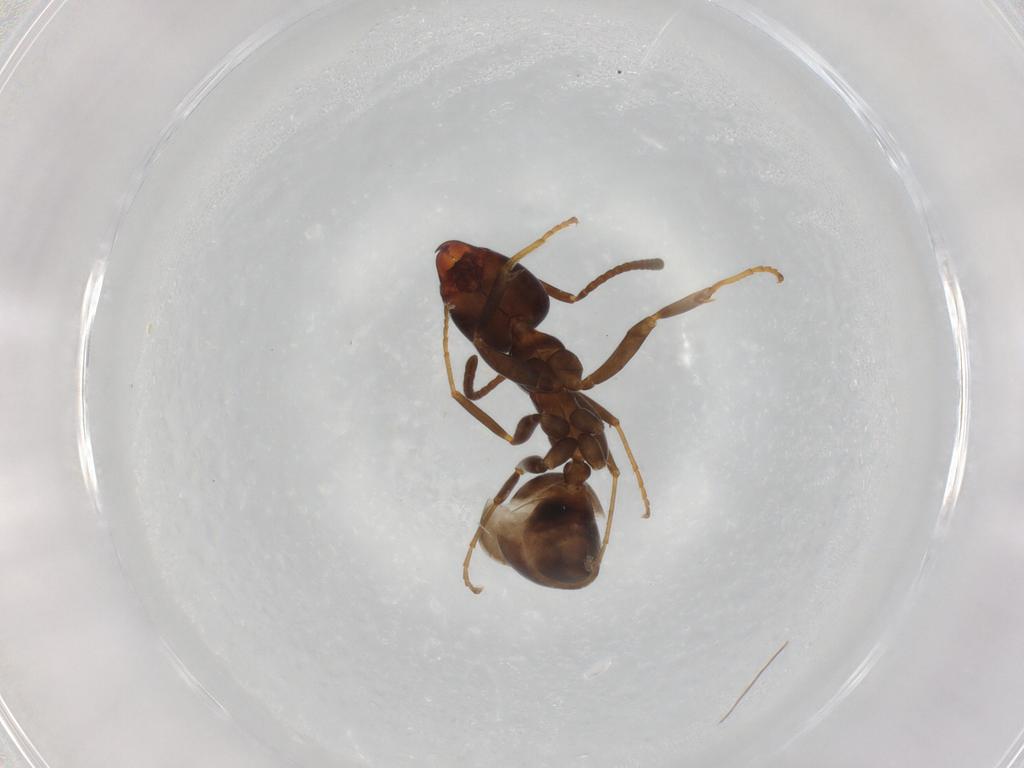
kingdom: Animalia
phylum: Arthropoda
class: Insecta
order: Hymenoptera
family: Formicidae
